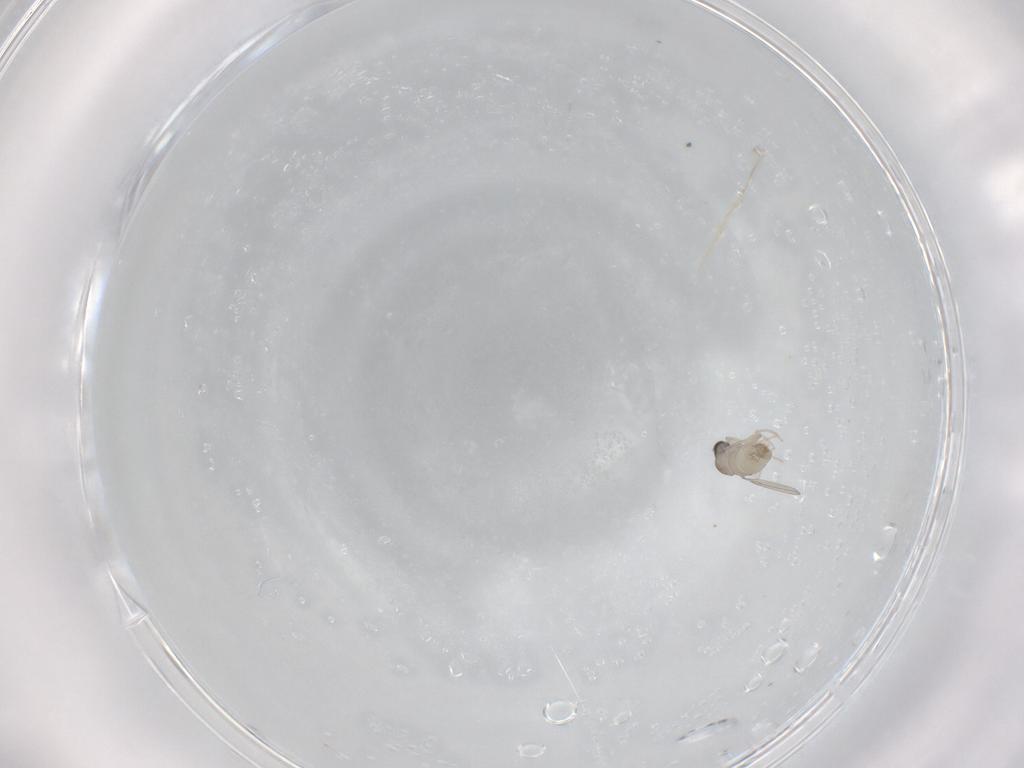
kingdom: Animalia
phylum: Arthropoda
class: Insecta
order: Diptera
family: Cecidomyiidae
